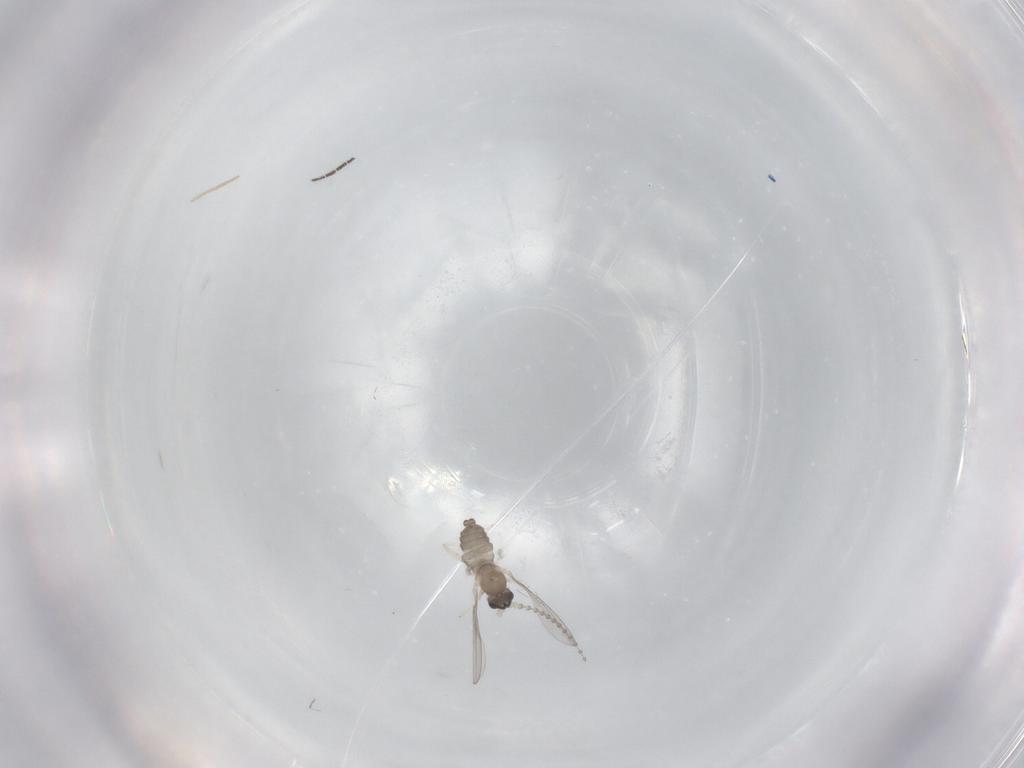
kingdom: Animalia
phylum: Arthropoda
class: Insecta
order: Diptera
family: Cecidomyiidae
